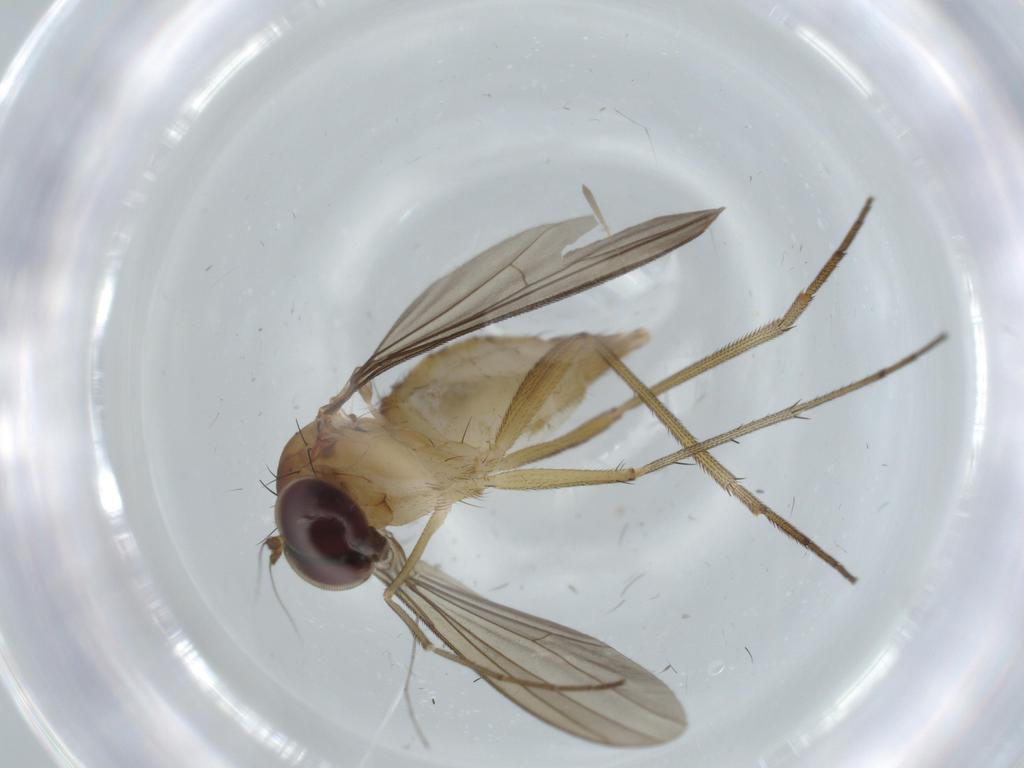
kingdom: Animalia
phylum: Arthropoda
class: Insecta
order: Diptera
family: Dolichopodidae
